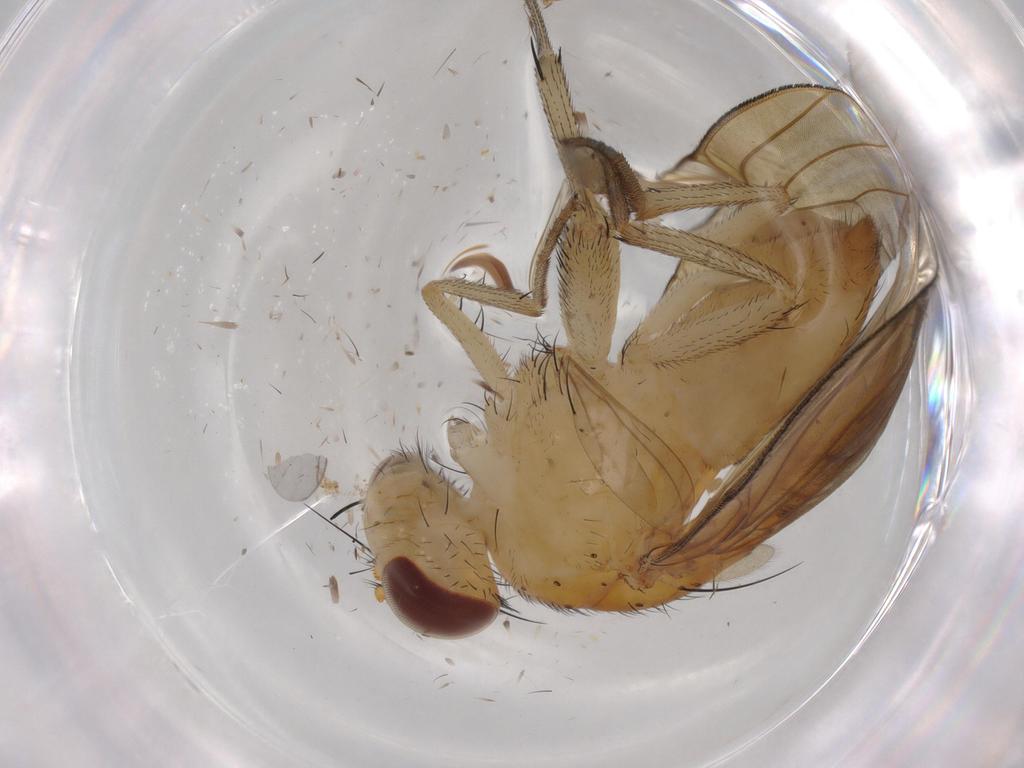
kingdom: Animalia
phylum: Arthropoda
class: Insecta
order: Diptera
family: Lauxaniidae
